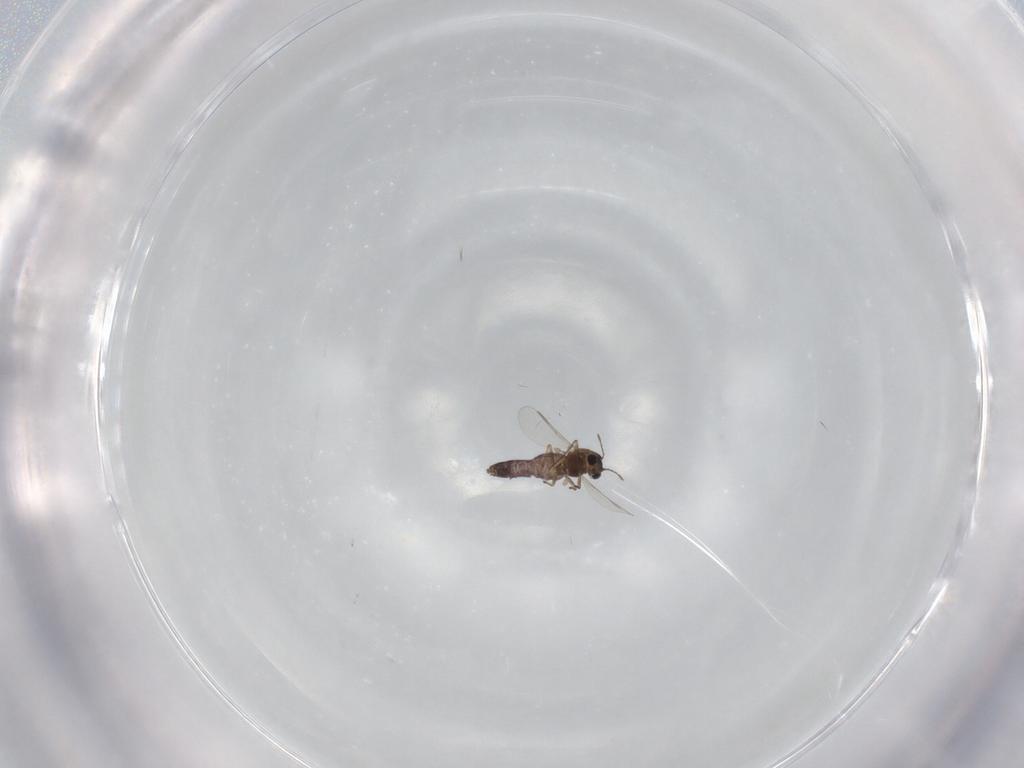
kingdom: Animalia
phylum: Arthropoda
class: Insecta
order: Diptera
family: Chironomidae
